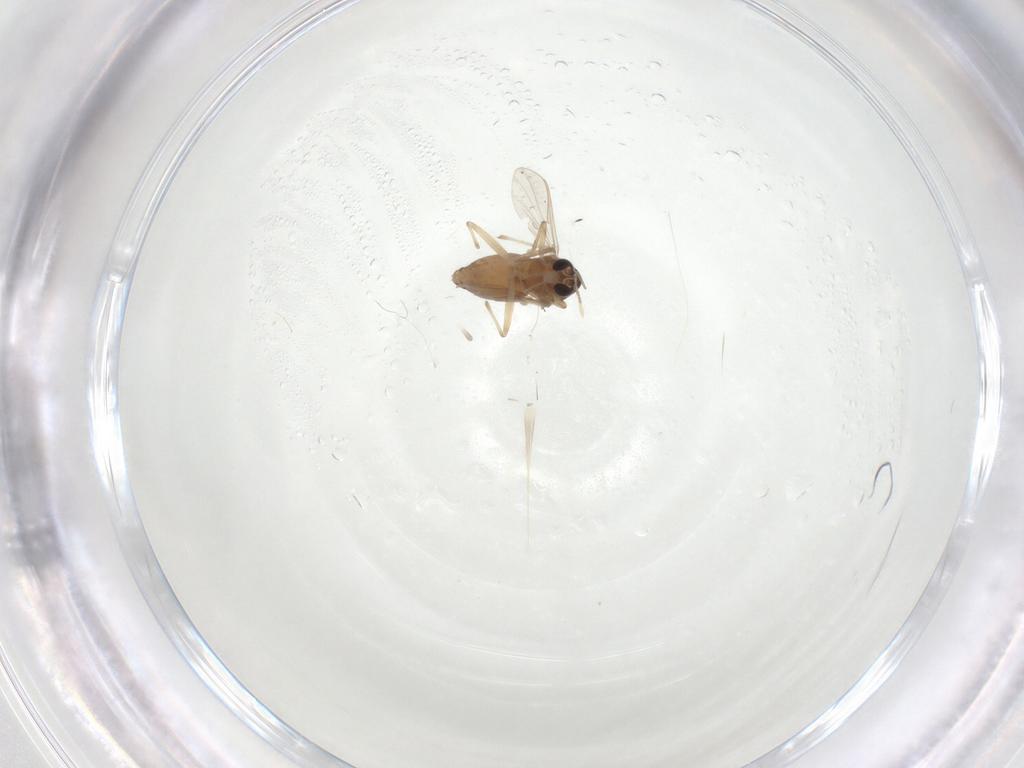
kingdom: Animalia
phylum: Arthropoda
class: Insecta
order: Diptera
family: Chironomidae
